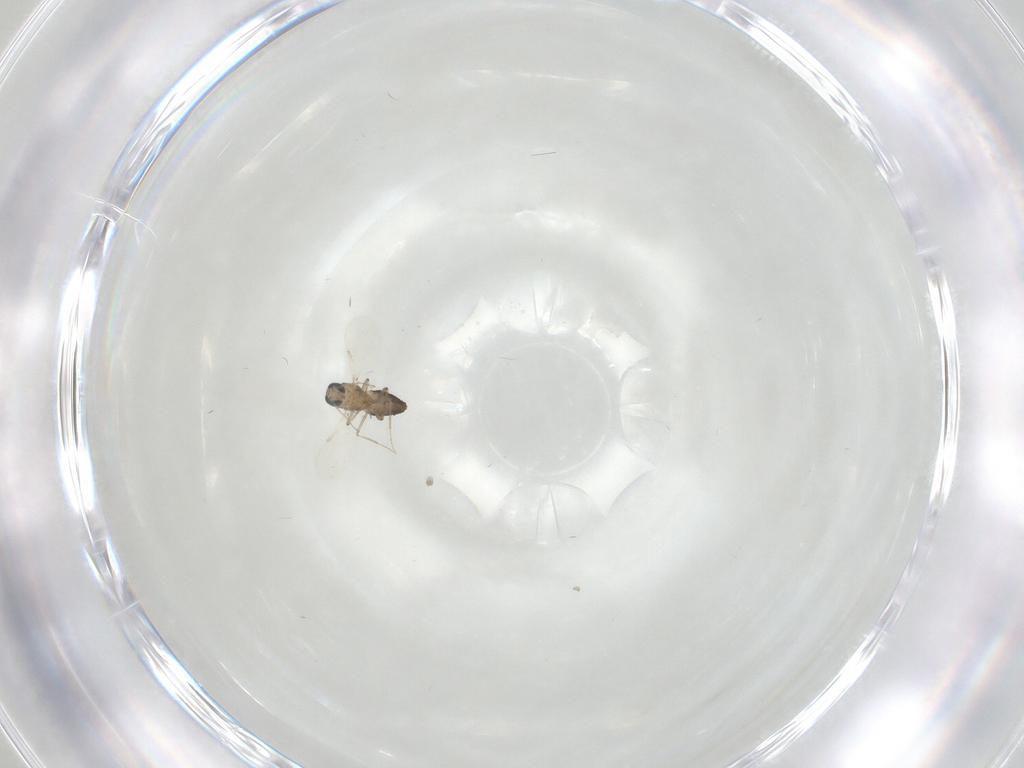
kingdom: Animalia
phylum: Arthropoda
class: Insecta
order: Diptera
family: Ceratopogonidae
